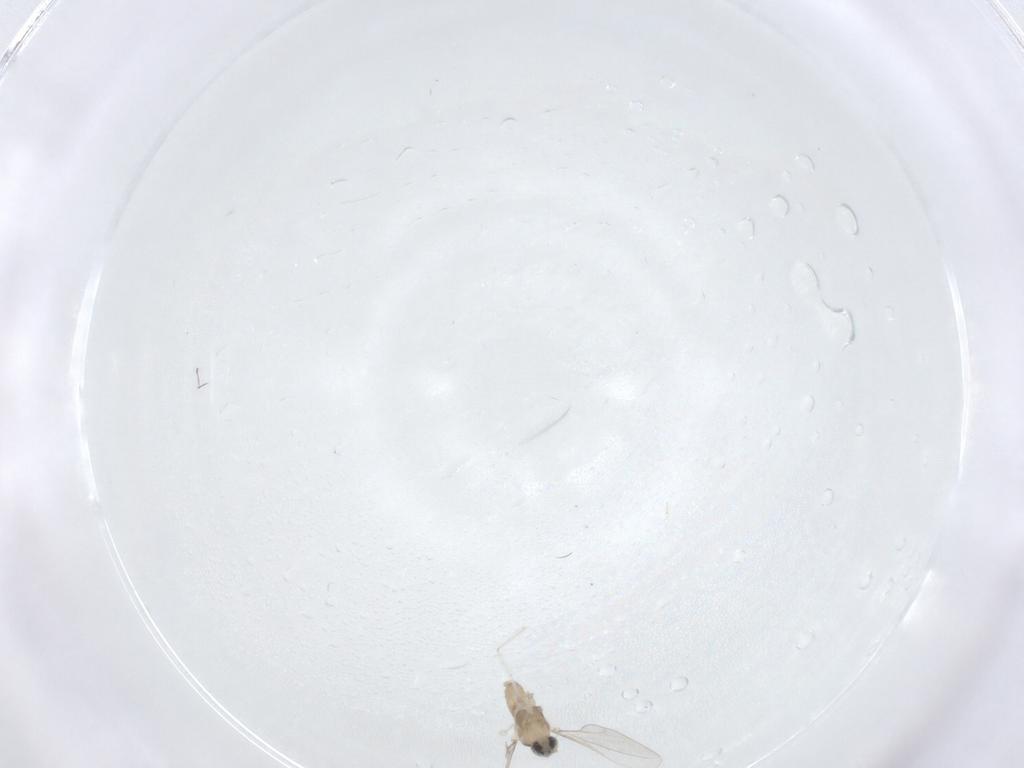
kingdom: Animalia
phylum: Arthropoda
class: Insecta
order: Diptera
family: Cecidomyiidae
